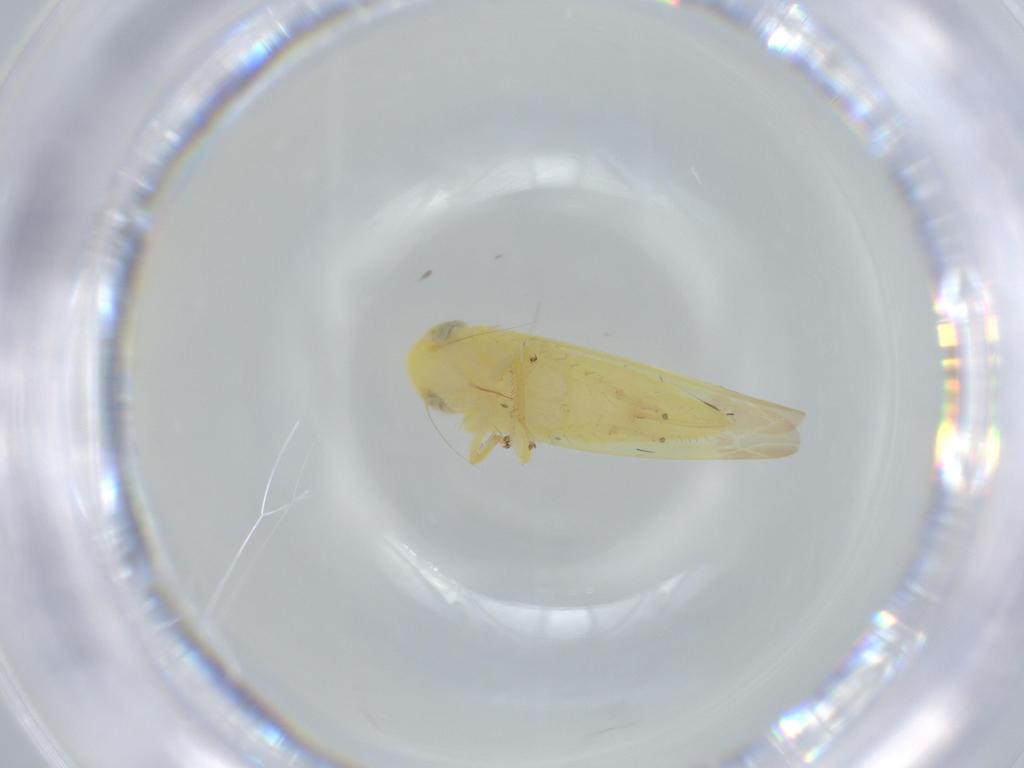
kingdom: Animalia
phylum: Arthropoda
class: Insecta
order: Hemiptera
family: Cicadellidae
